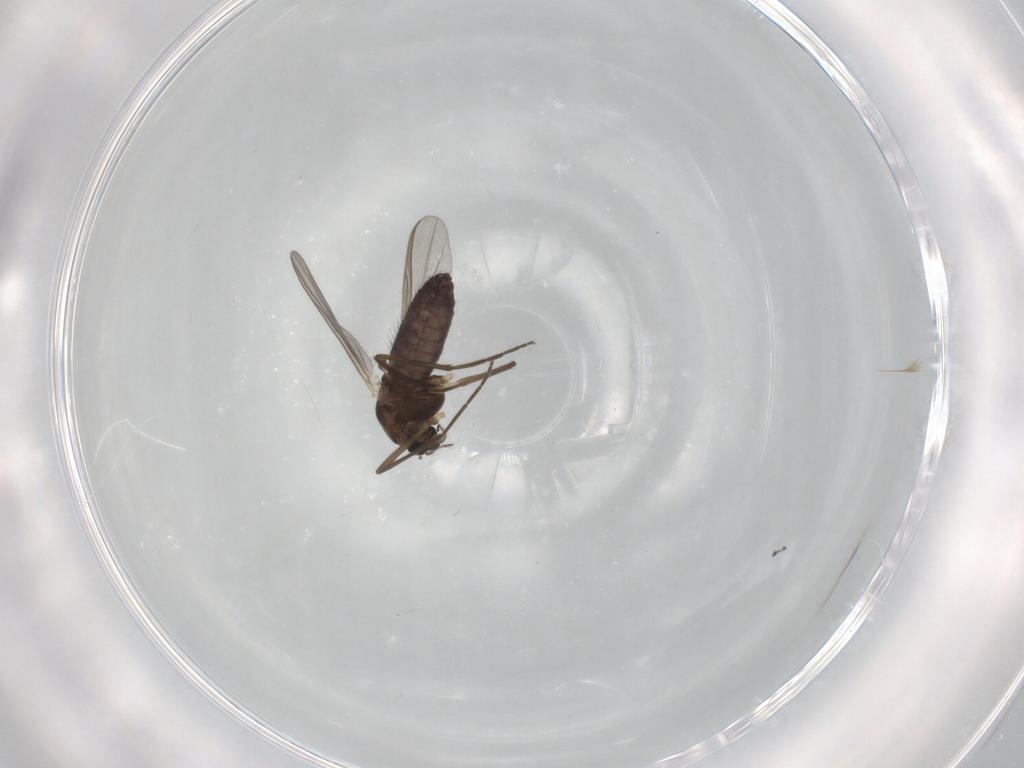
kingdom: Animalia
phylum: Arthropoda
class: Insecta
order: Diptera
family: Chironomidae
